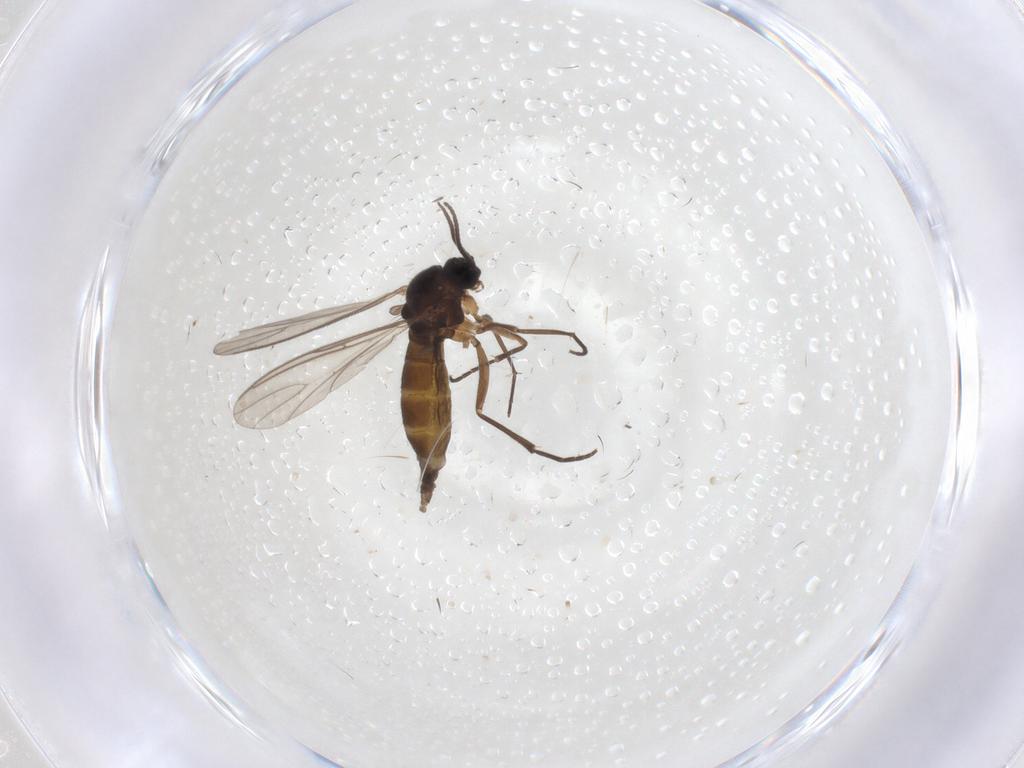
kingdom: Animalia
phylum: Arthropoda
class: Insecta
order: Diptera
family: Sciaridae
